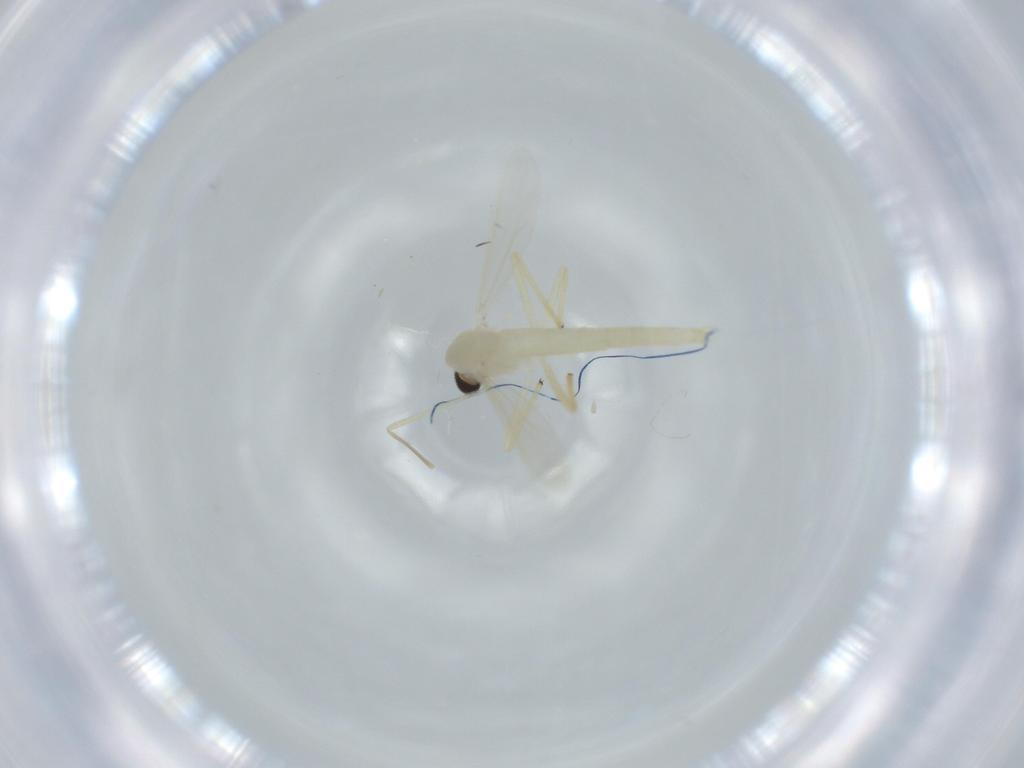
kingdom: Animalia
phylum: Arthropoda
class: Insecta
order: Diptera
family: Chironomidae
